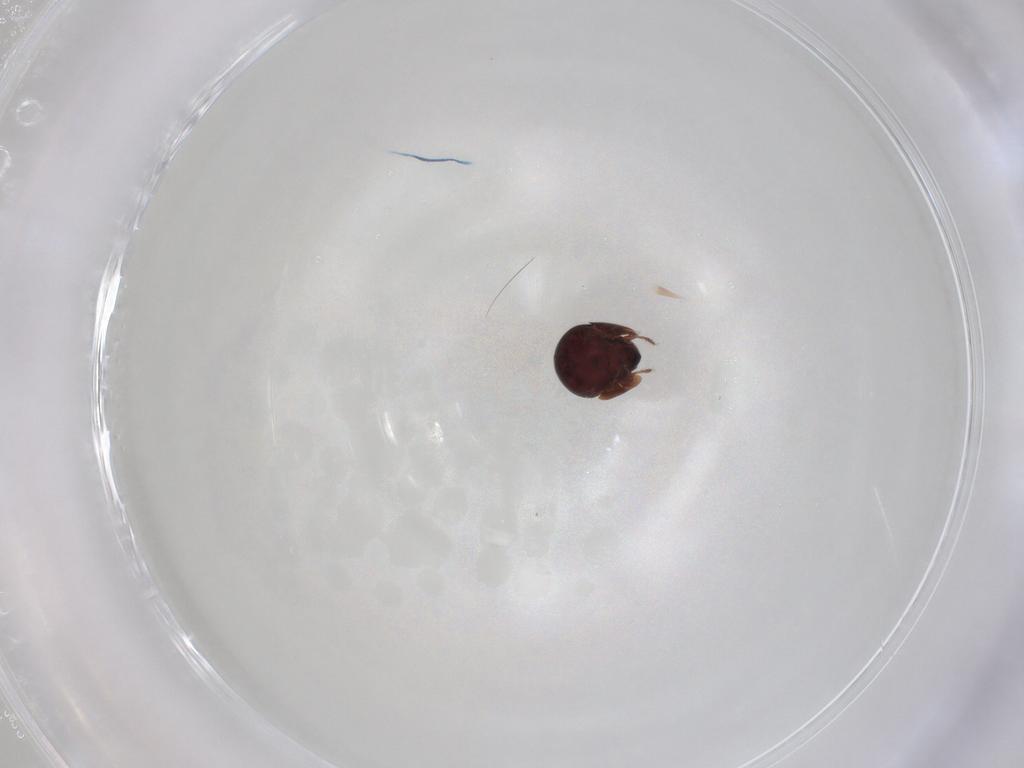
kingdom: Animalia
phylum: Arthropoda
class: Arachnida
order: Sarcoptiformes
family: Galumnidae
